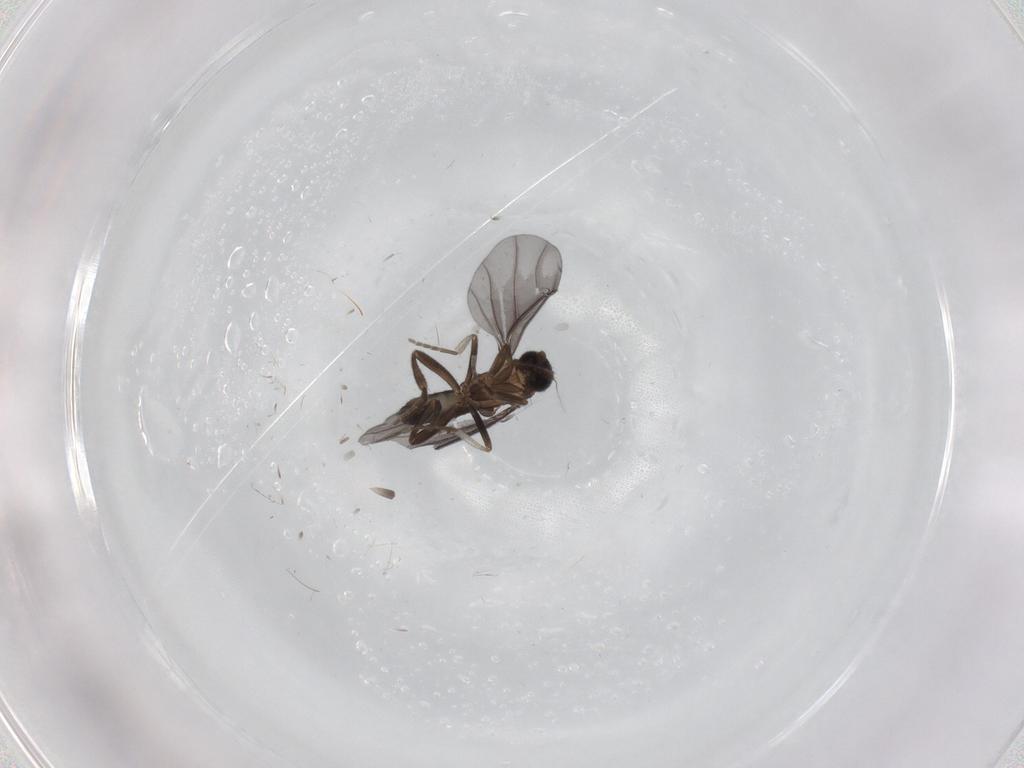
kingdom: Animalia
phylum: Arthropoda
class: Insecta
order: Diptera
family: Phoridae
